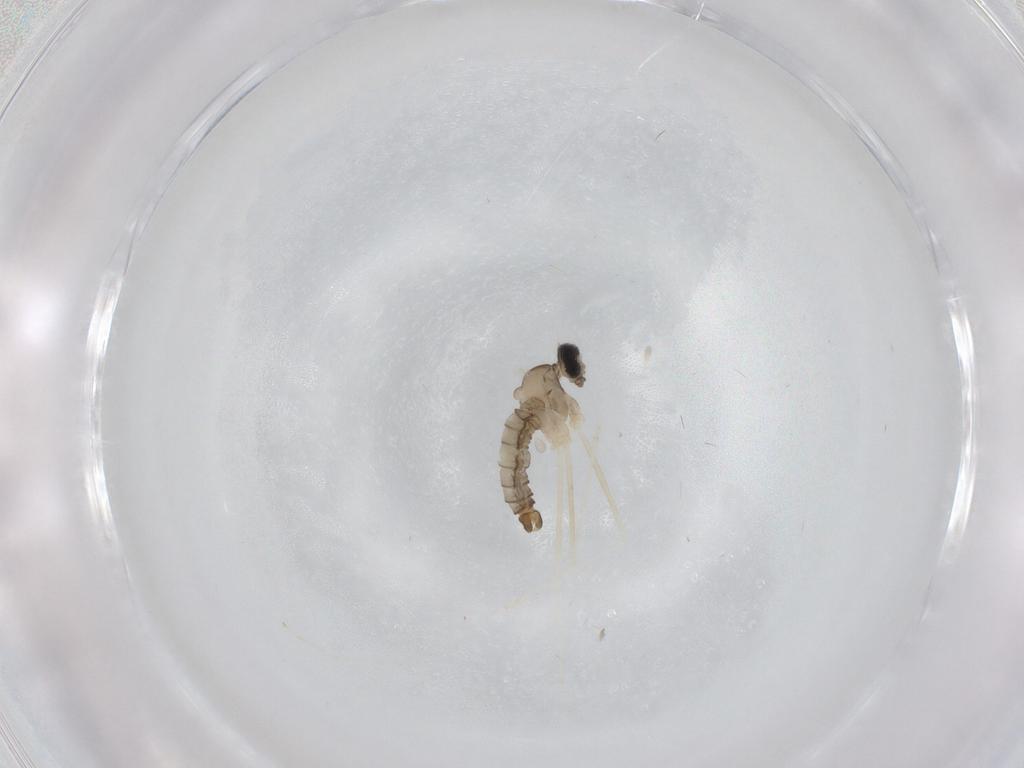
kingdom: Animalia
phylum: Arthropoda
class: Insecta
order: Diptera
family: Cecidomyiidae
